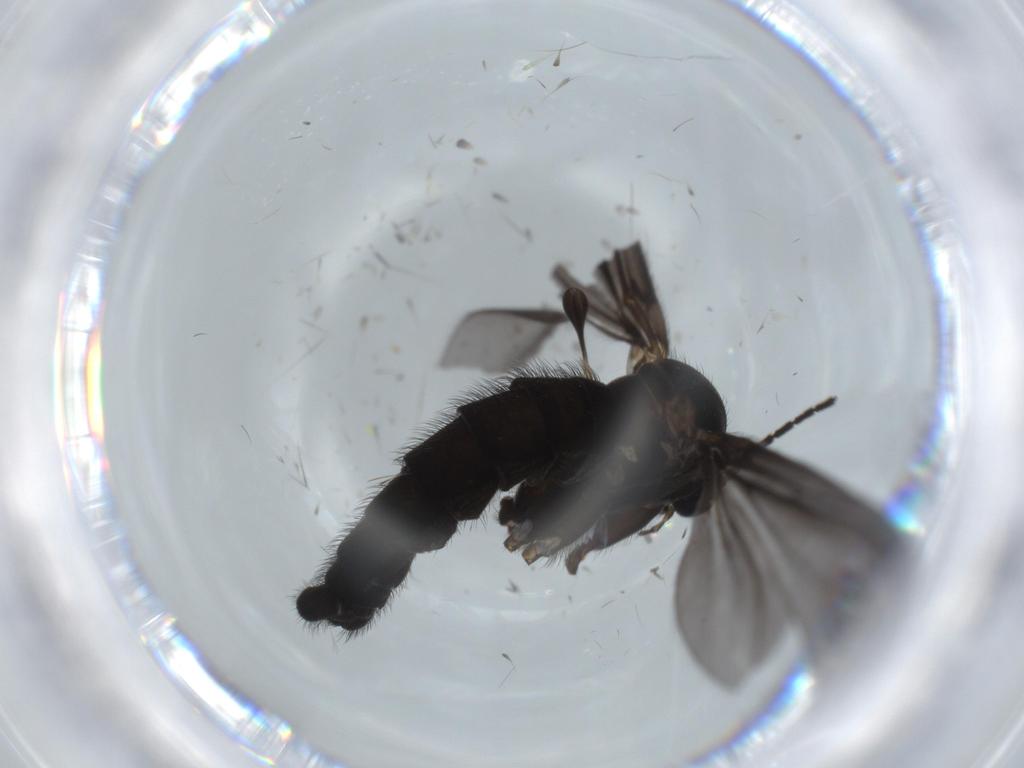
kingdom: Animalia
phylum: Arthropoda
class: Insecta
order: Diptera
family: Sciaridae
